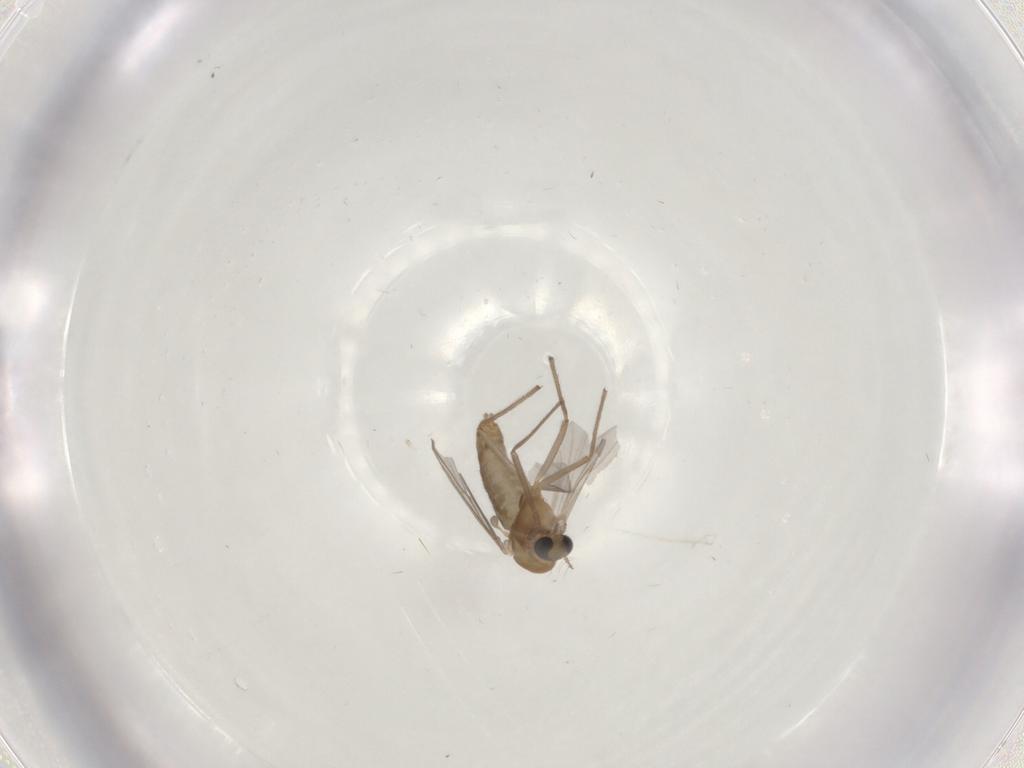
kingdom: Animalia
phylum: Arthropoda
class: Insecta
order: Diptera
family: Chironomidae
